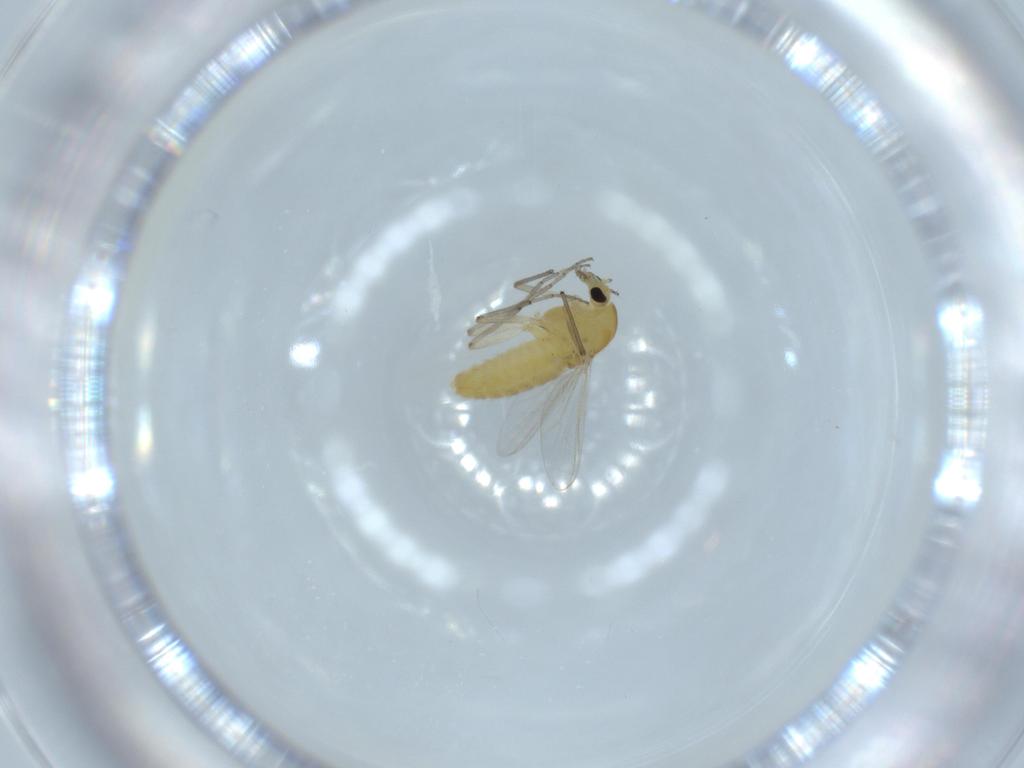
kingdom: Animalia
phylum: Arthropoda
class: Insecta
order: Diptera
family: Chironomidae
